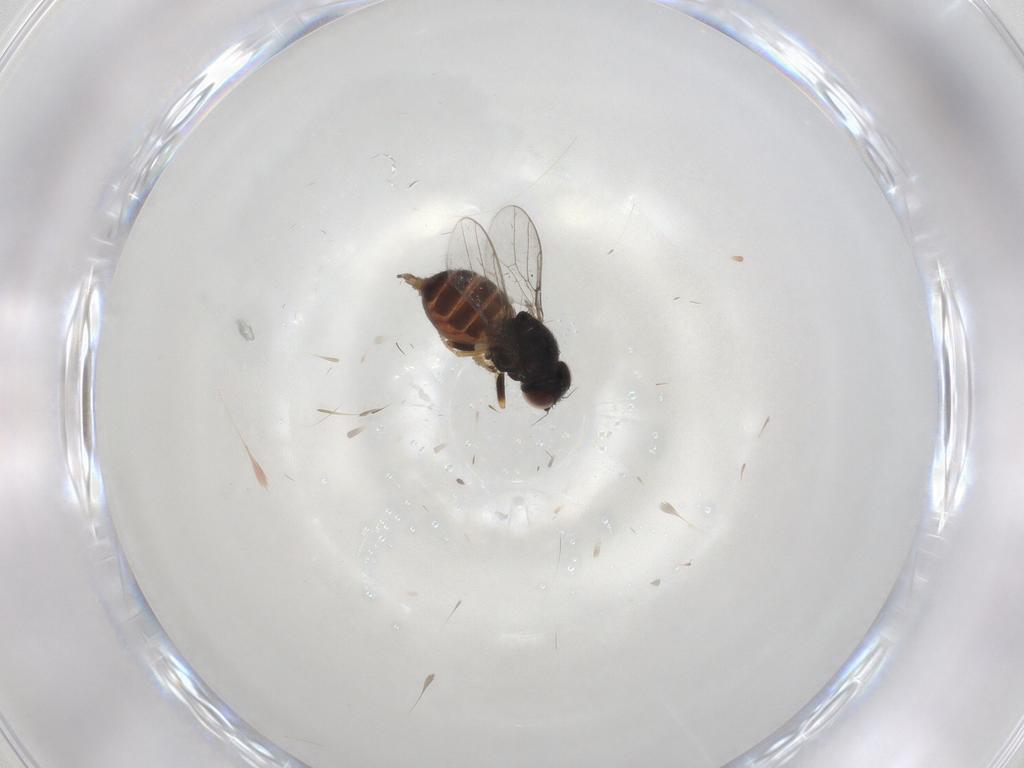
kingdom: Animalia
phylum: Arthropoda
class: Insecta
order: Diptera
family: Chloropidae
